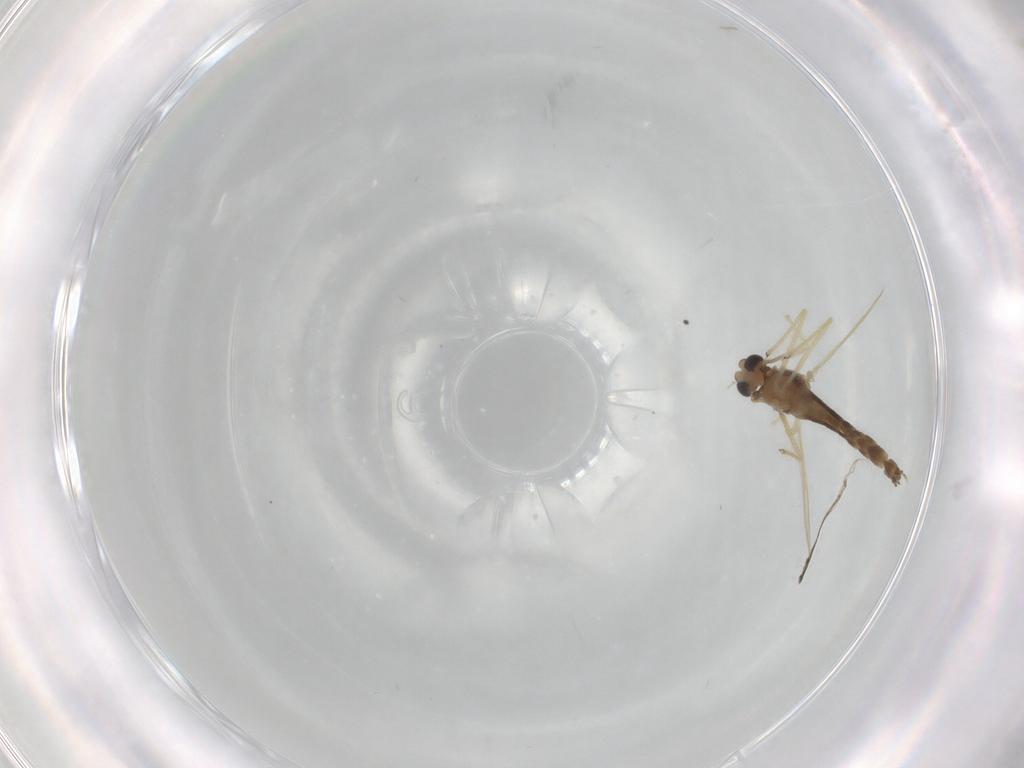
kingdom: Animalia
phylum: Arthropoda
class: Insecta
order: Diptera
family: Chironomidae
